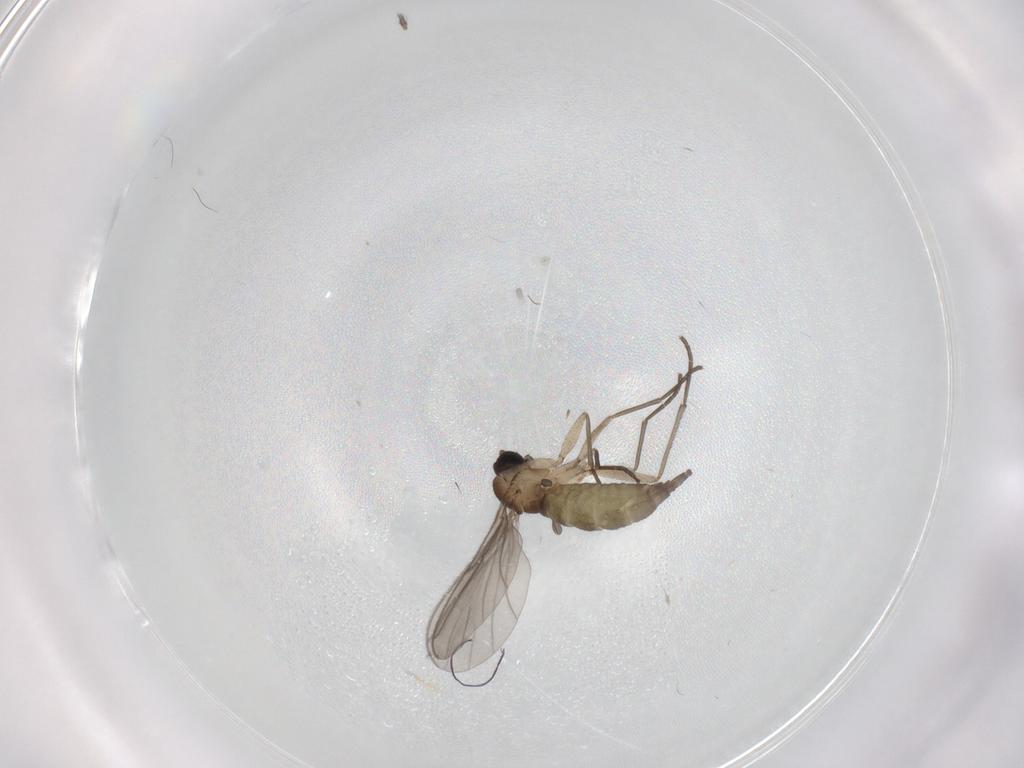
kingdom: Animalia
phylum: Arthropoda
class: Insecta
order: Diptera
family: Sciaridae
